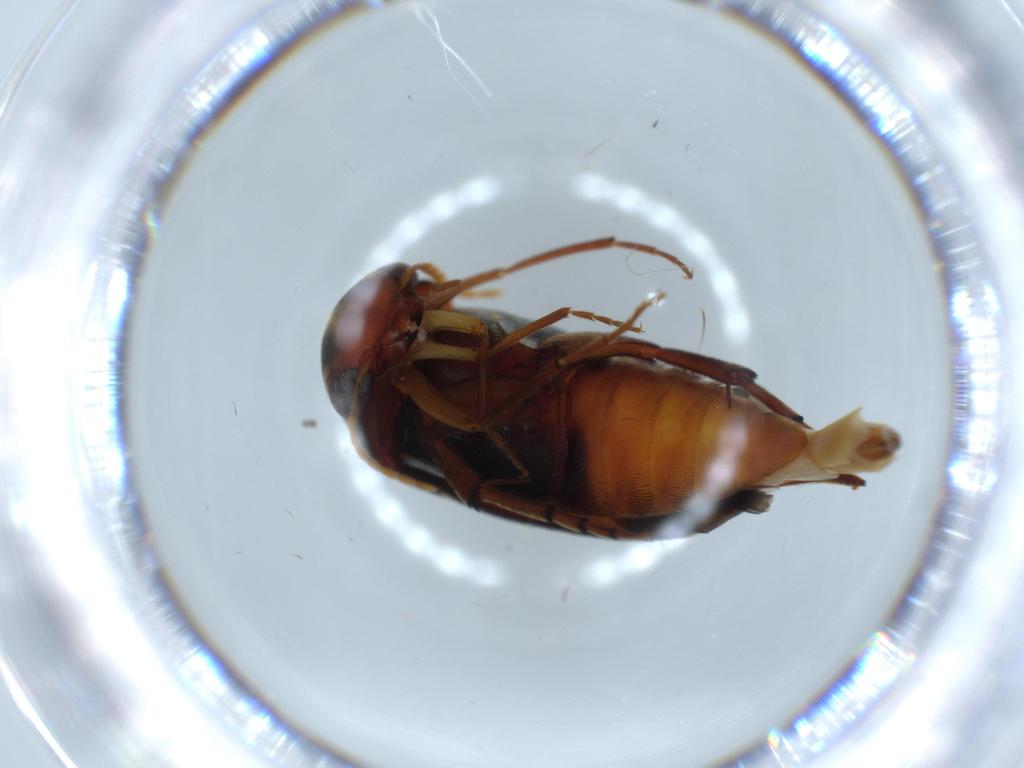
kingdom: Animalia
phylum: Arthropoda
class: Insecta
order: Coleoptera
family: Mordellidae
